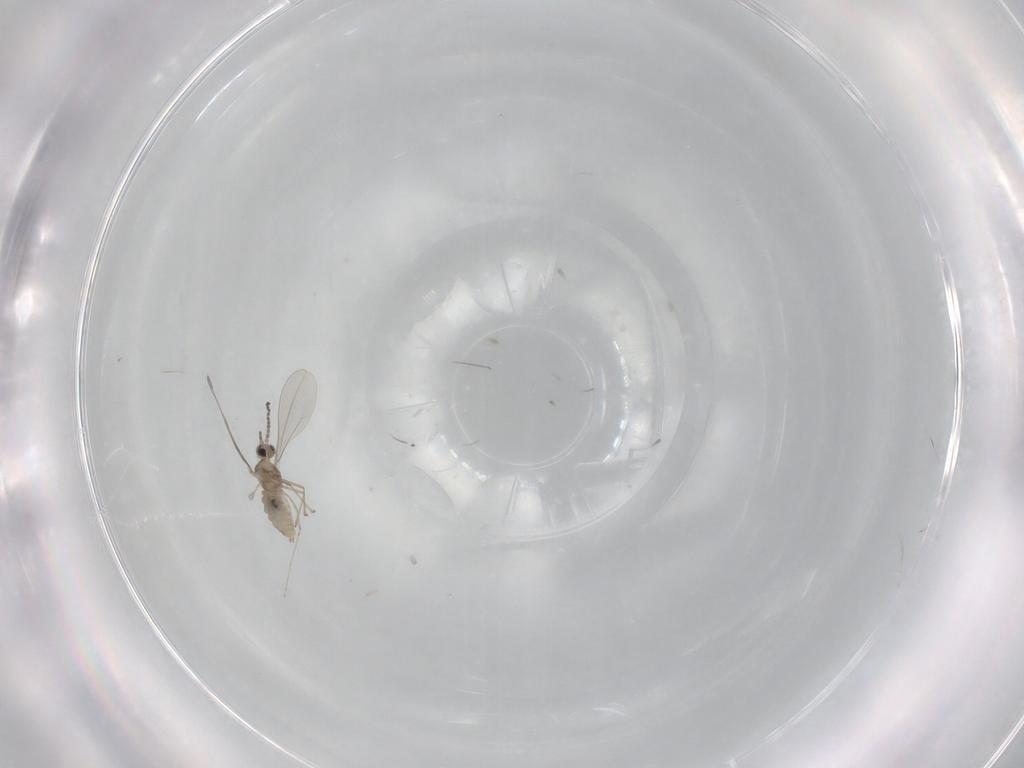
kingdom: Animalia
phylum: Arthropoda
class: Insecta
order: Diptera
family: Cecidomyiidae
